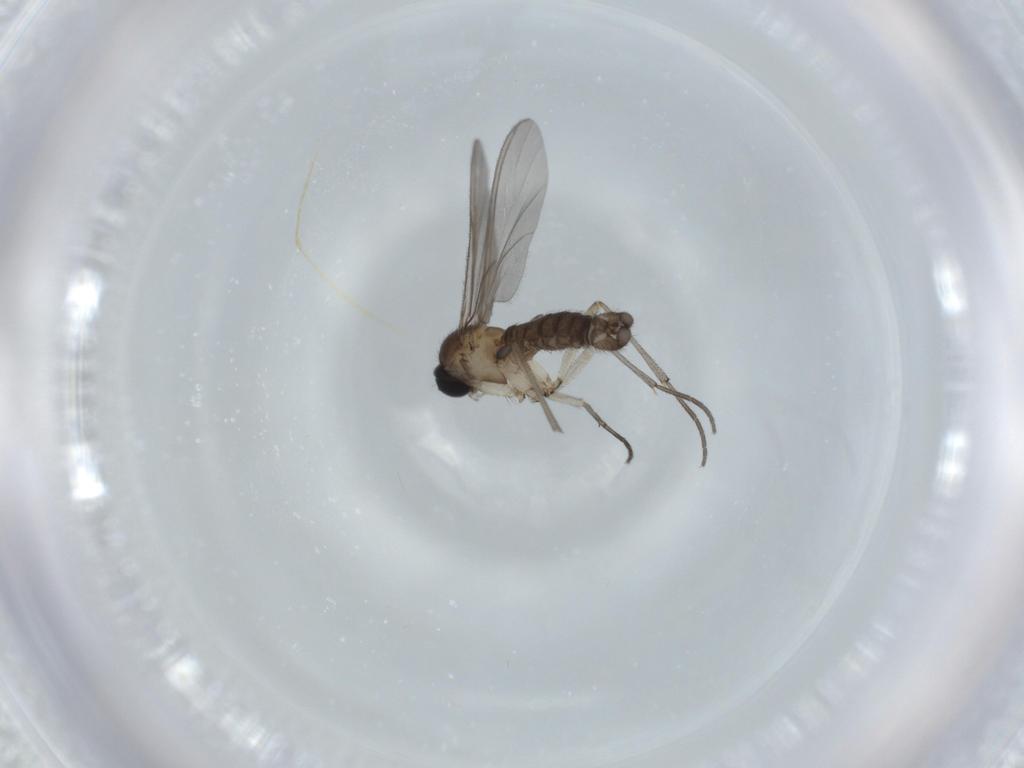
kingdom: Animalia
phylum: Arthropoda
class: Insecta
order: Diptera
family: Sciaridae
